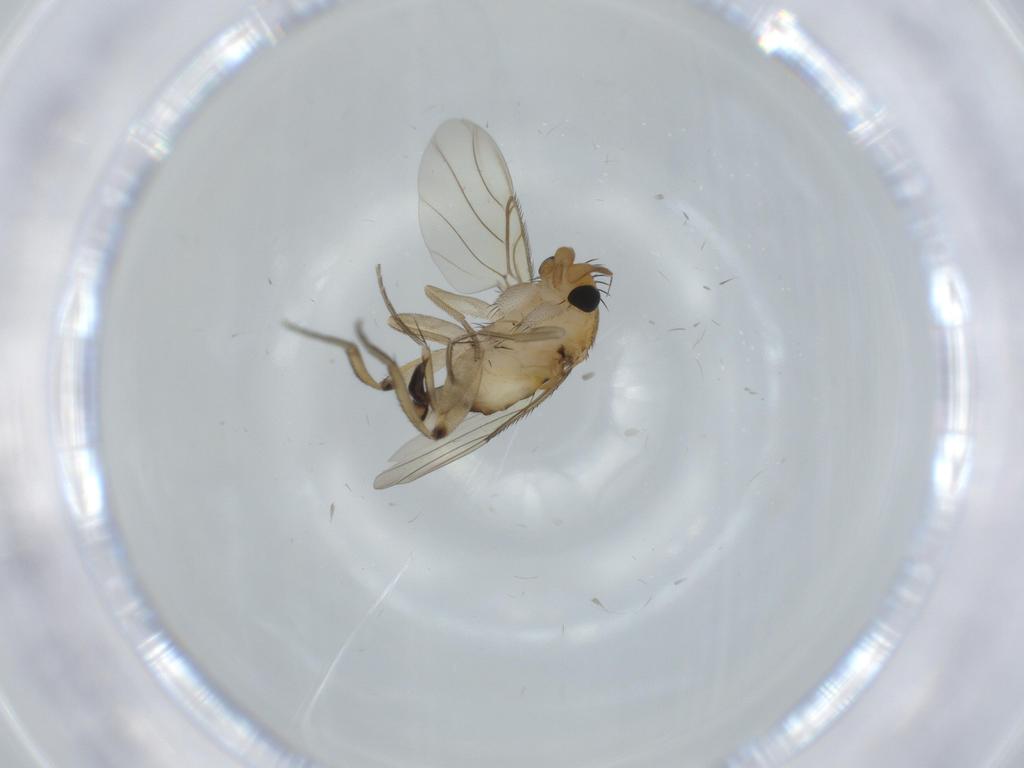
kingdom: Animalia
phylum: Arthropoda
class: Insecta
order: Diptera
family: Phoridae
